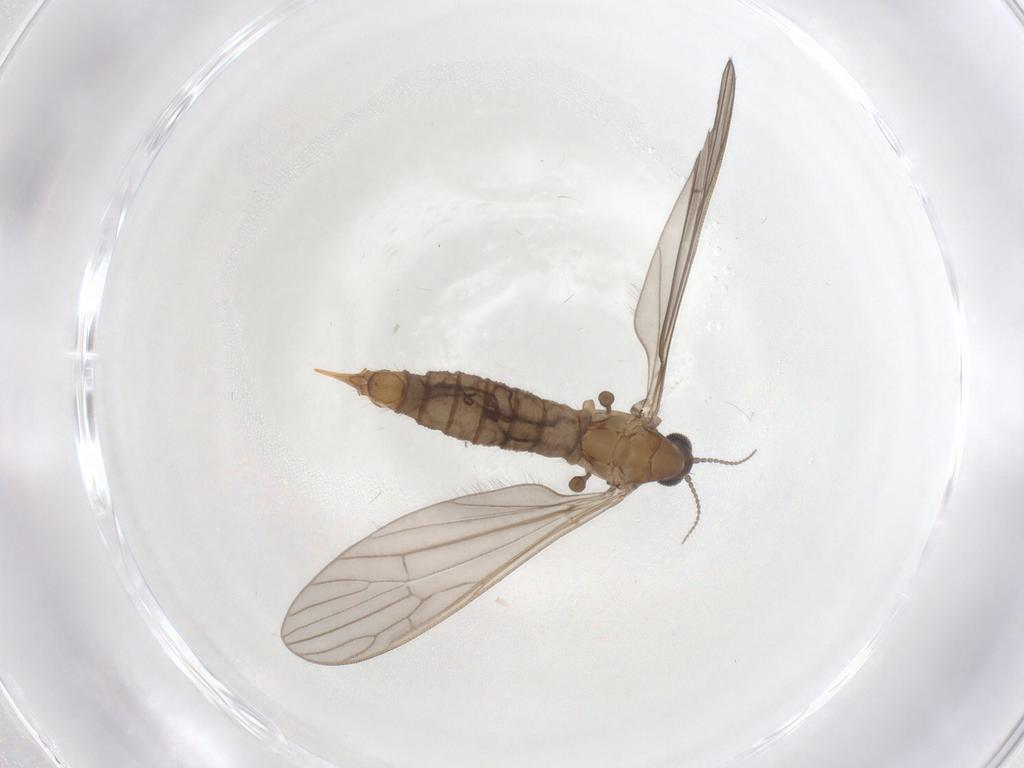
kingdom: Animalia
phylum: Arthropoda
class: Insecta
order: Diptera
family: Limoniidae
